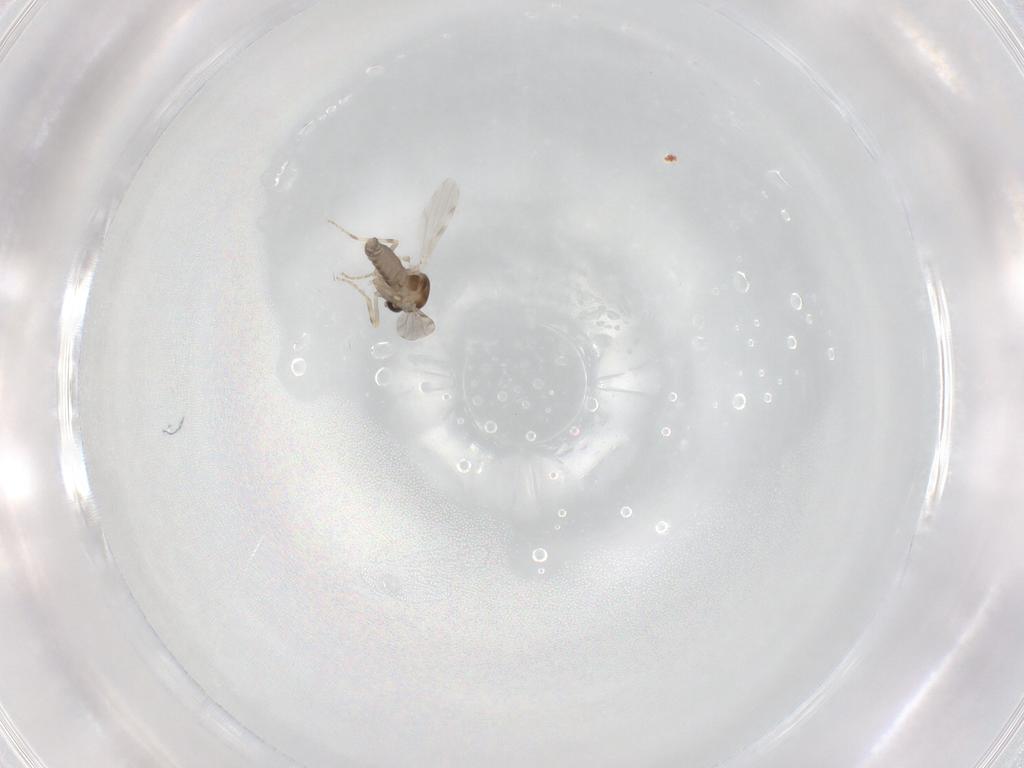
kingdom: Animalia
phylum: Arthropoda
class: Insecta
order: Diptera
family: Ceratopogonidae
